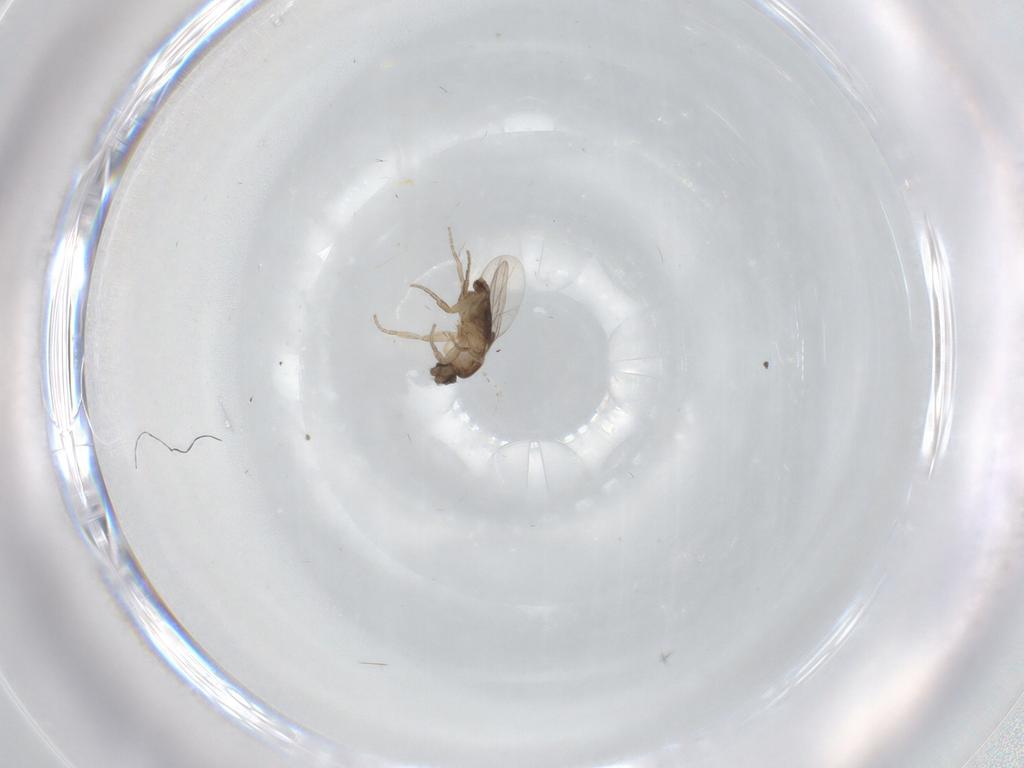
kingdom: Animalia
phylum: Arthropoda
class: Insecta
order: Diptera
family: Phoridae
